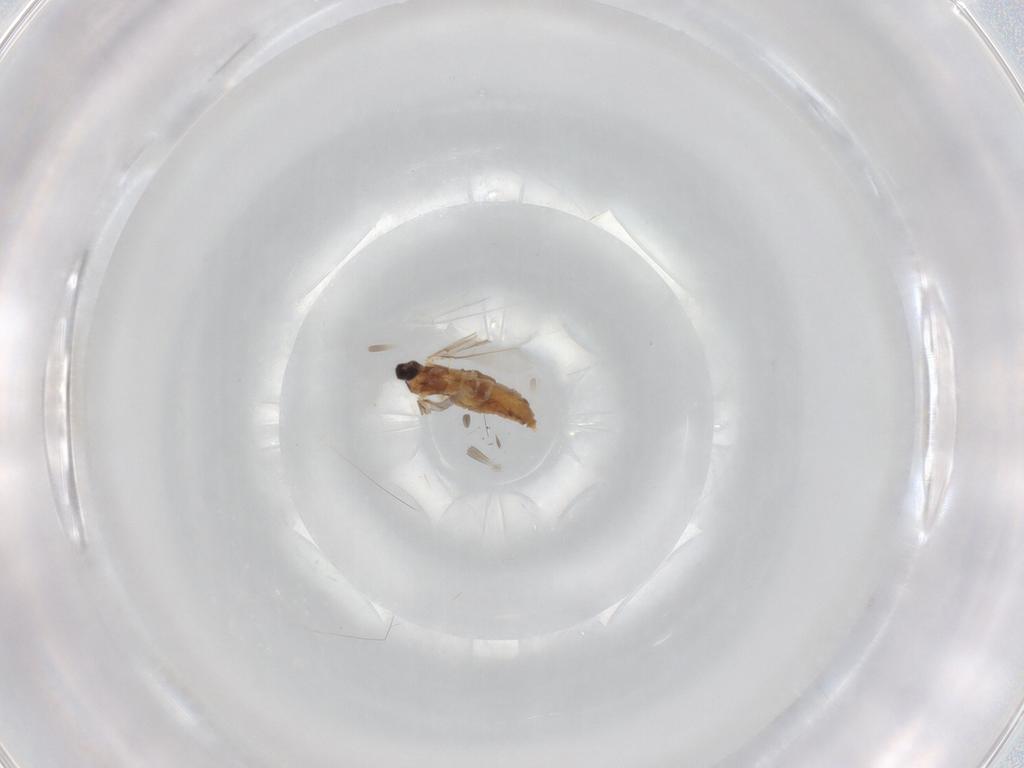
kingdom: Animalia
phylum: Arthropoda
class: Insecta
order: Diptera
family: Cecidomyiidae
